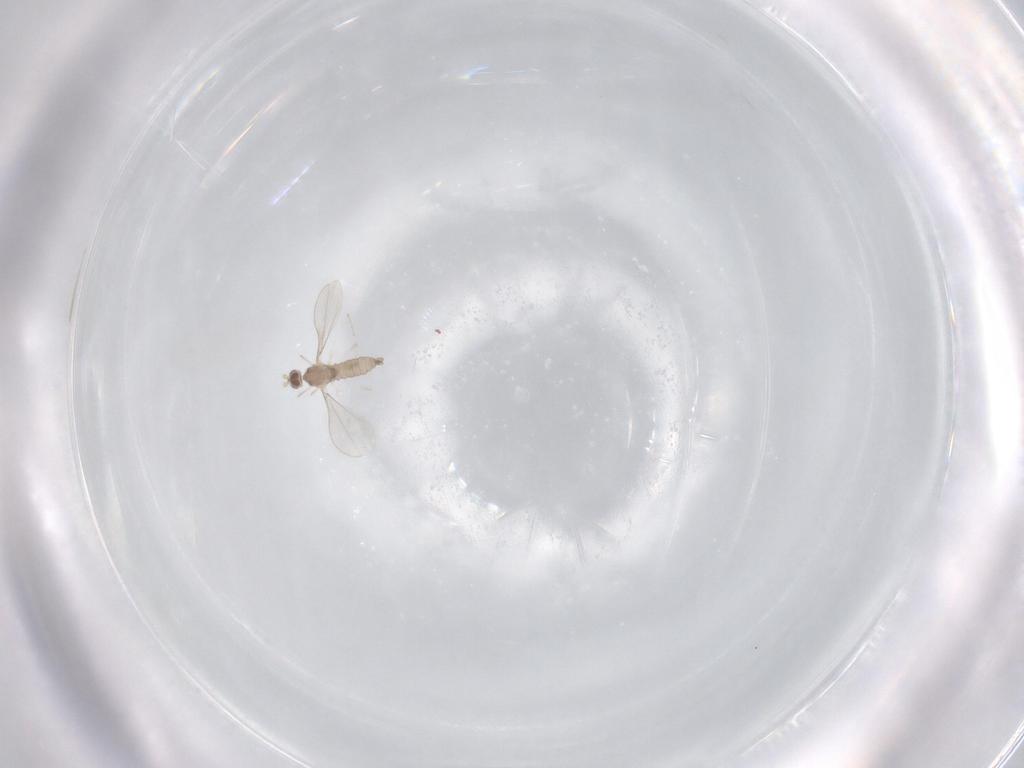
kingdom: Animalia
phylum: Arthropoda
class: Insecta
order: Diptera
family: Cecidomyiidae
